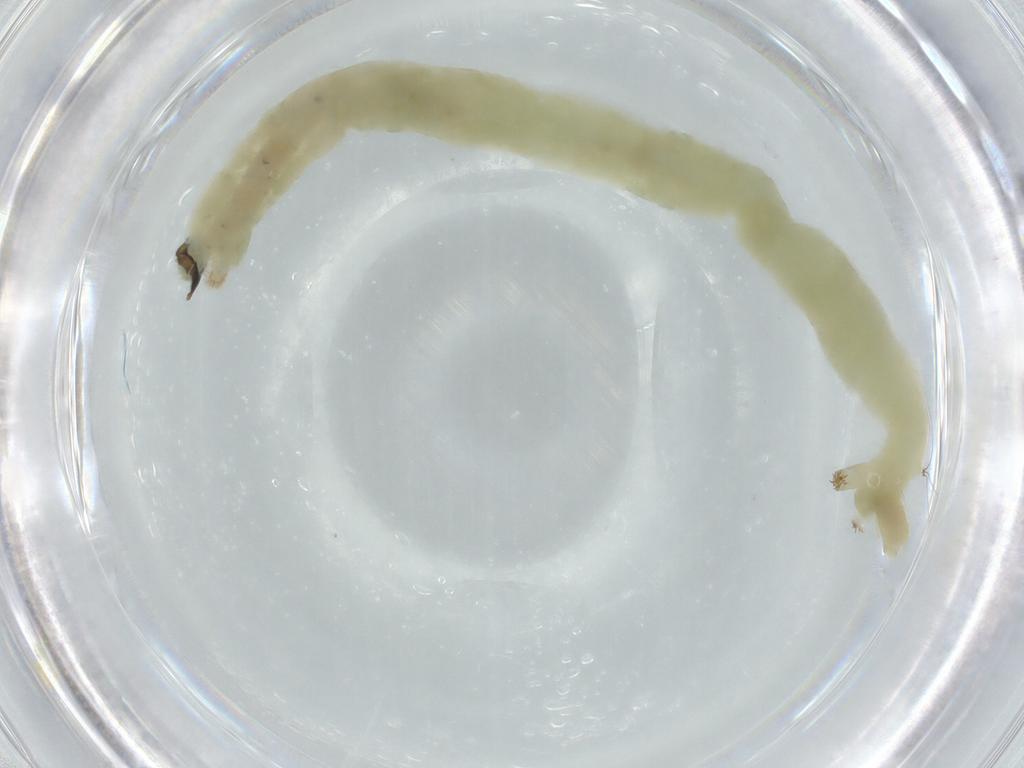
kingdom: Animalia
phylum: Arthropoda
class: Insecta
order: Diptera
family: Chironomidae
